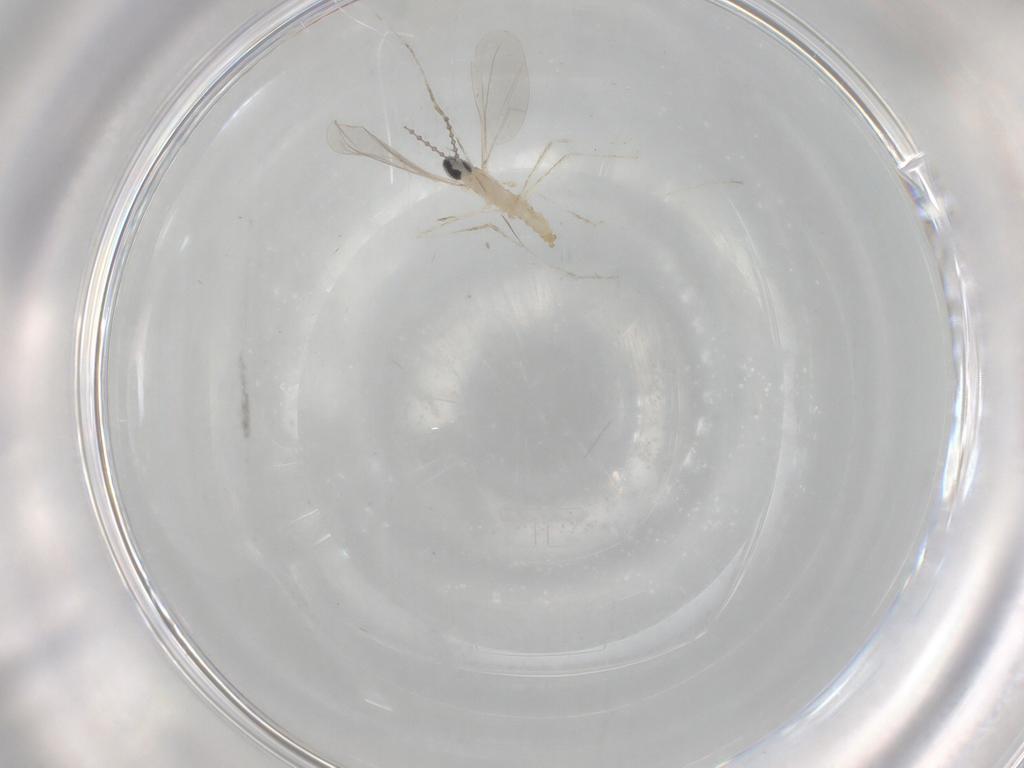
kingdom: Animalia
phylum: Arthropoda
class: Insecta
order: Diptera
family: Cecidomyiidae
